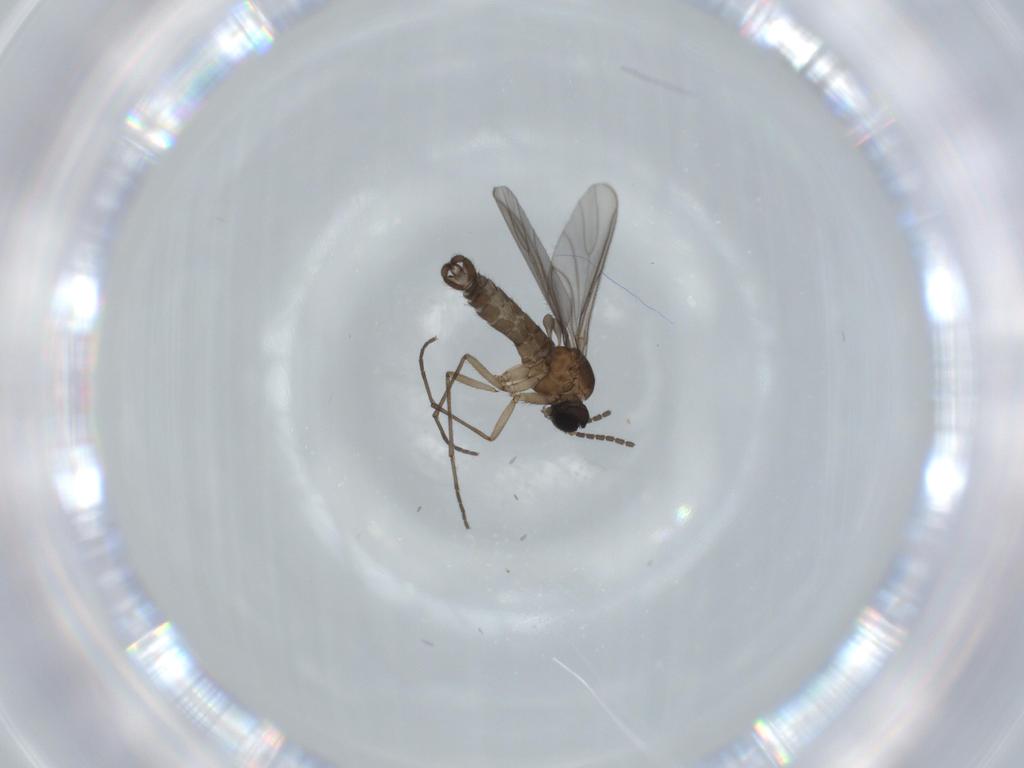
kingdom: Animalia
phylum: Arthropoda
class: Insecta
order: Diptera
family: Sciaridae
